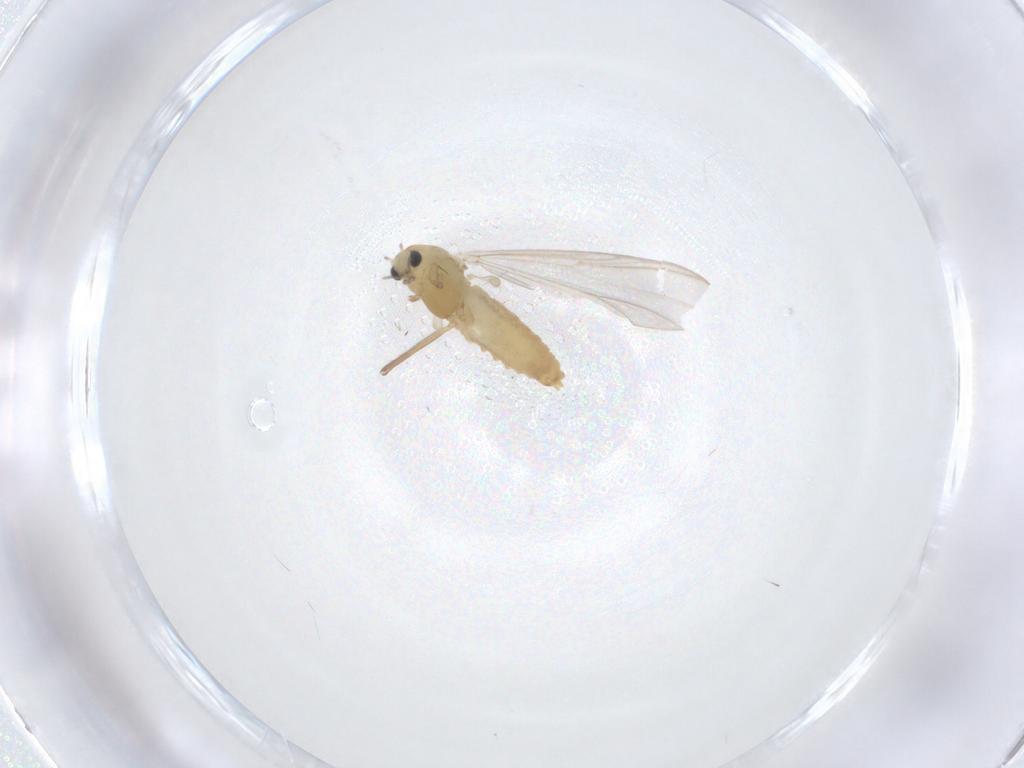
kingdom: Animalia
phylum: Arthropoda
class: Insecta
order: Diptera
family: Chironomidae
